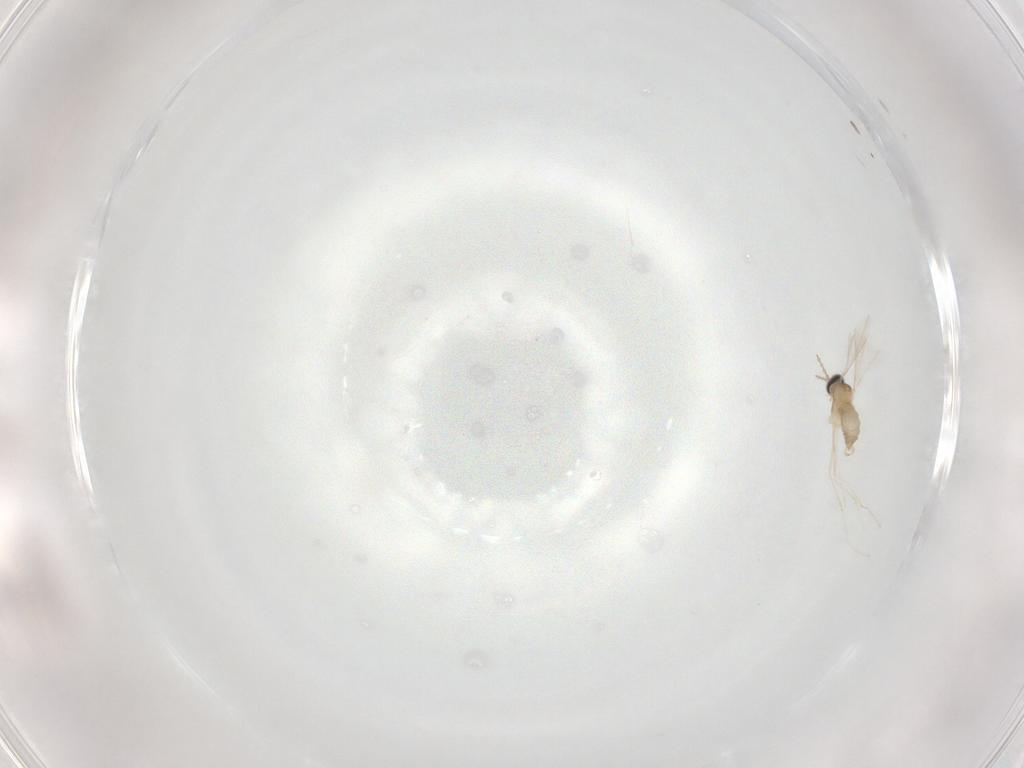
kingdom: Animalia
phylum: Arthropoda
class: Insecta
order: Diptera
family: Cecidomyiidae
